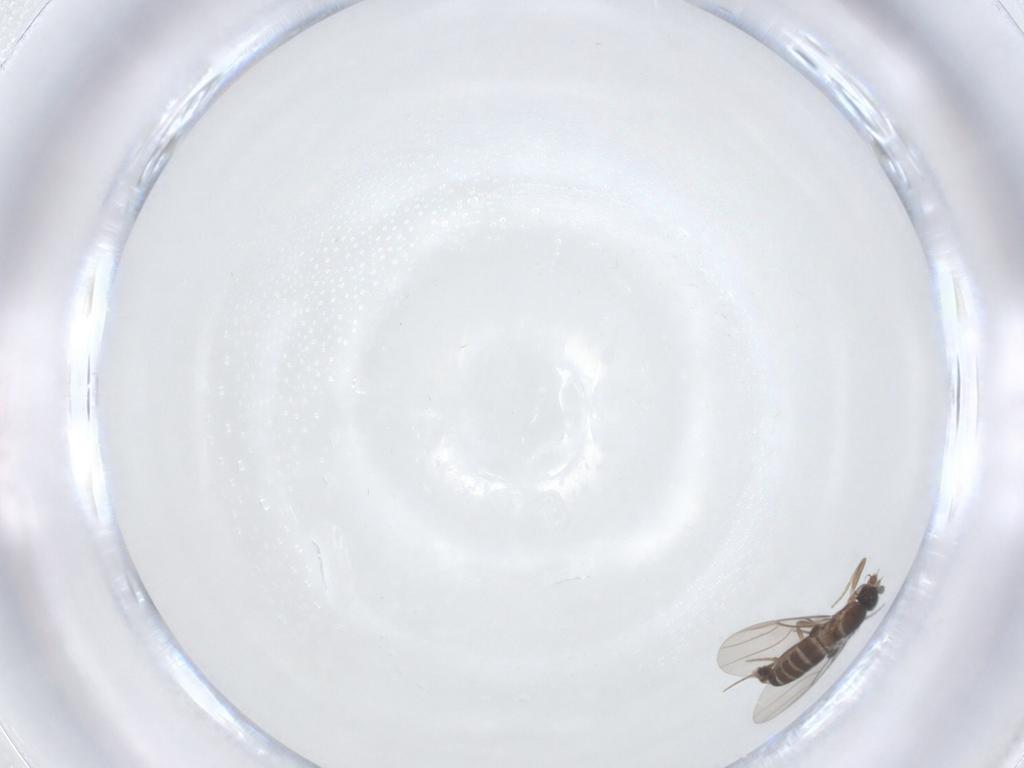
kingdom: Animalia
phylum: Arthropoda
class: Insecta
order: Diptera
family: Phoridae
